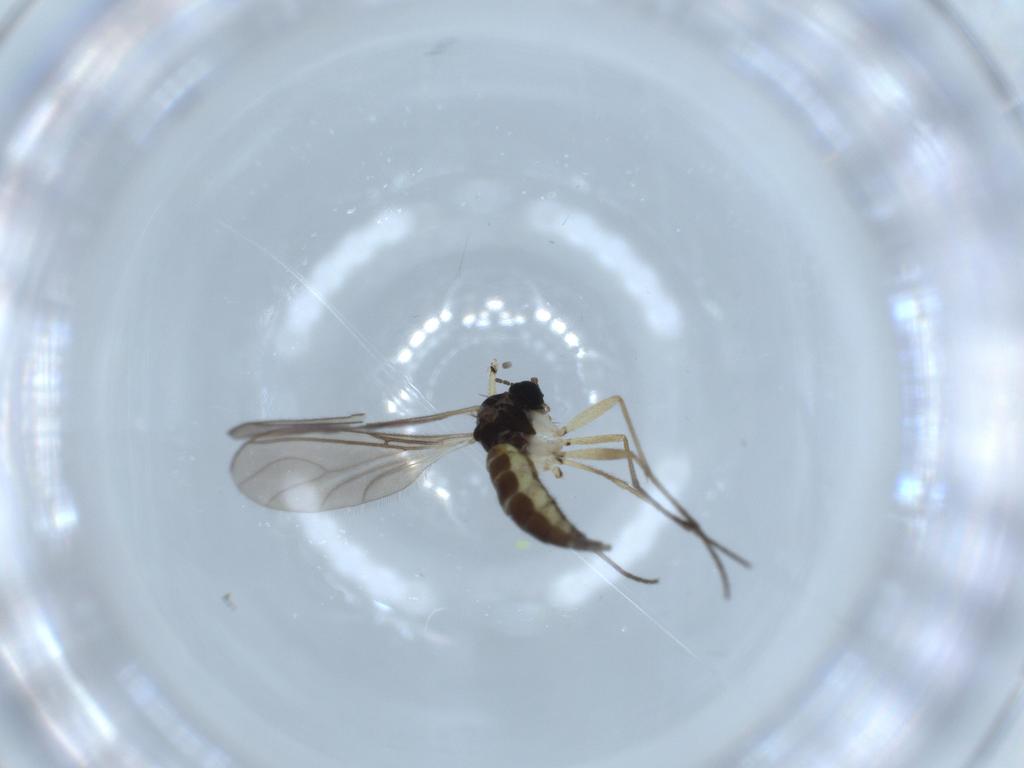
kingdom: Animalia
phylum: Arthropoda
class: Insecta
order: Diptera
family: Sciaridae
